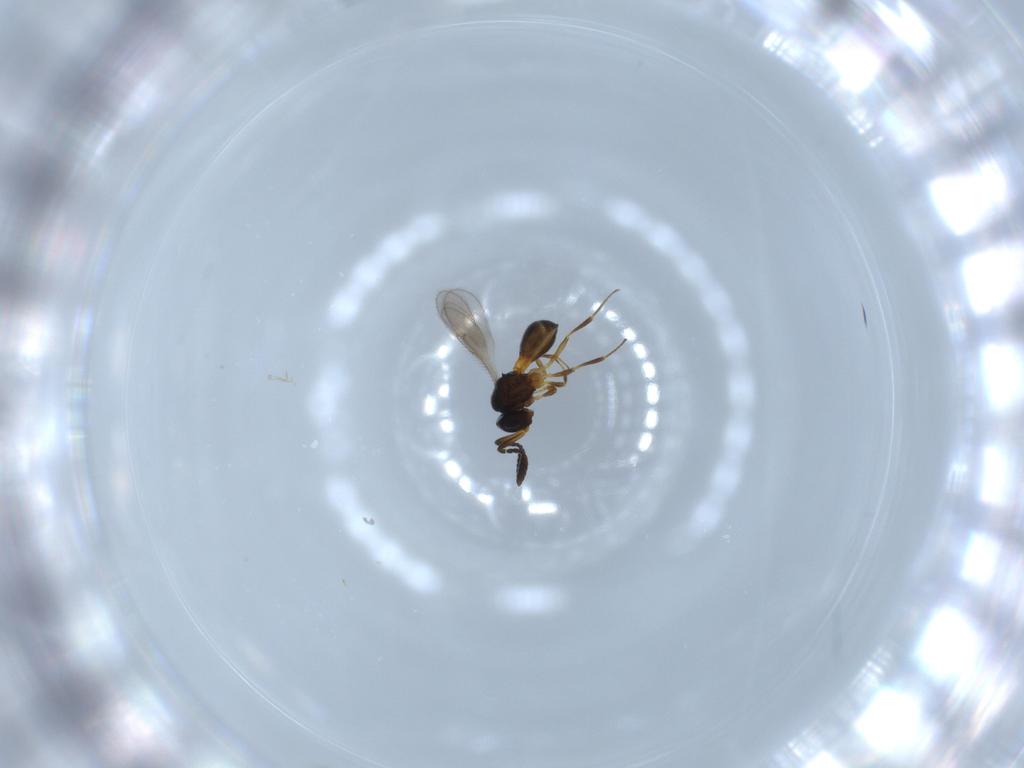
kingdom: Animalia
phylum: Arthropoda
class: Insecta
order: Hymenoptera
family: Scelionidae
